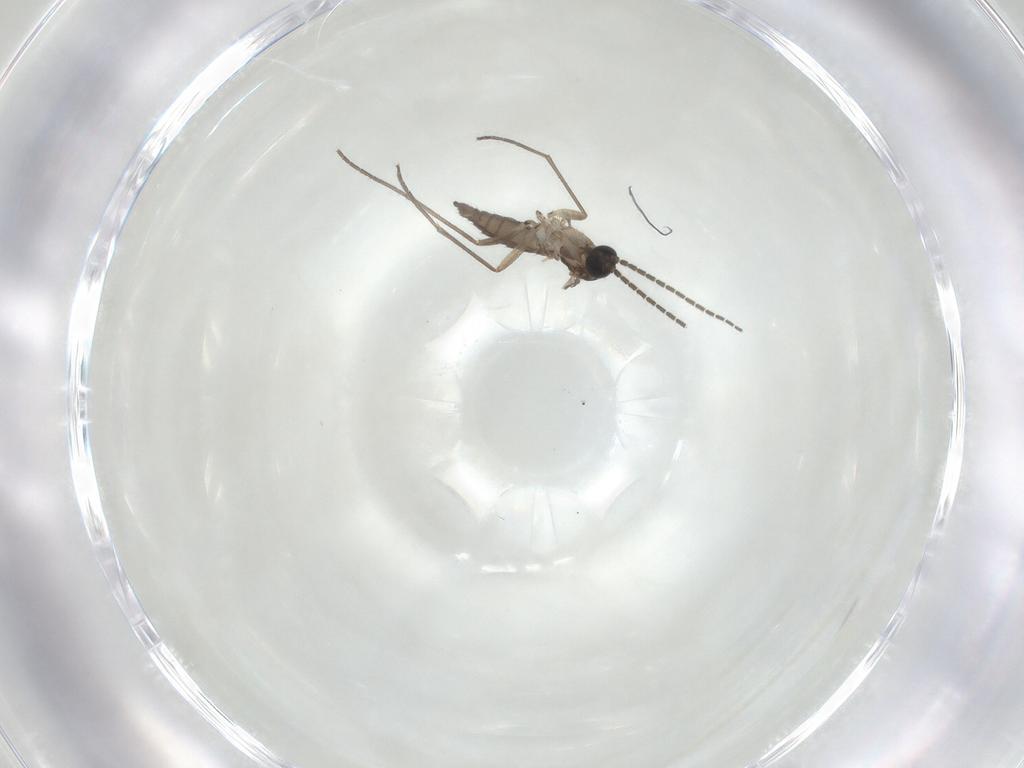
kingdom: Animalia
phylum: Arthropoda
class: Insecta
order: Diptera
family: Sciaridae
